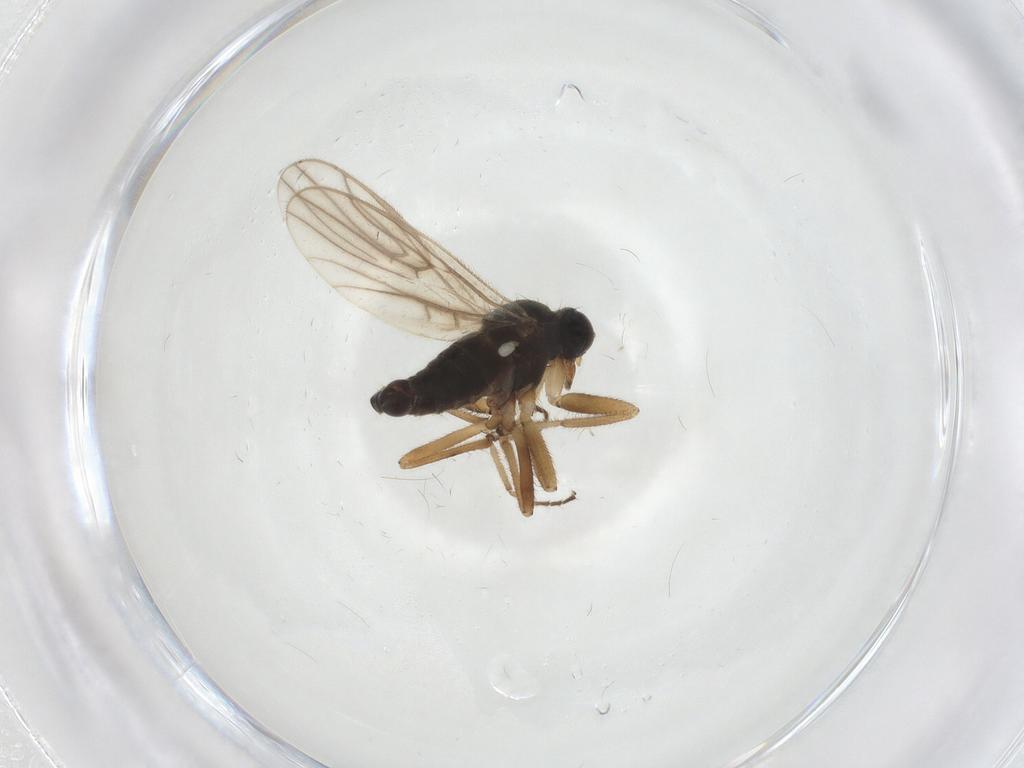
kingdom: Animalia
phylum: Arthropoda
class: Insecta
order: Diptera
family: Hybotidae
